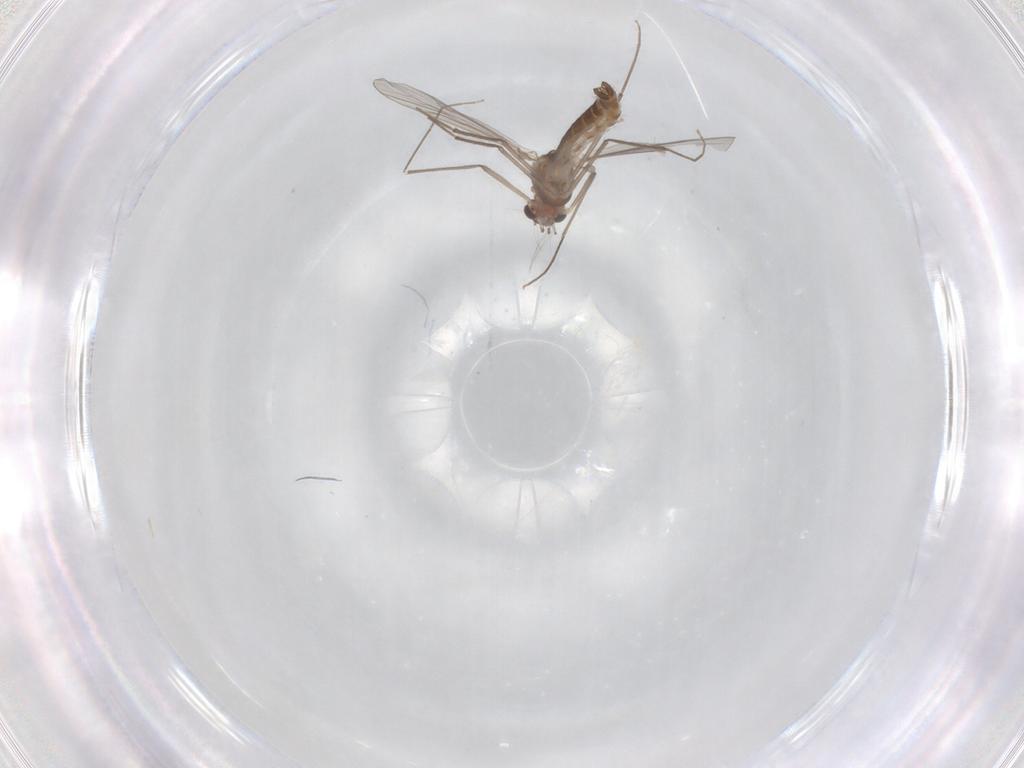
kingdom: Animalia
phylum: Arthropoda
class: Insecta
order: Diptera
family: Chironomidae
